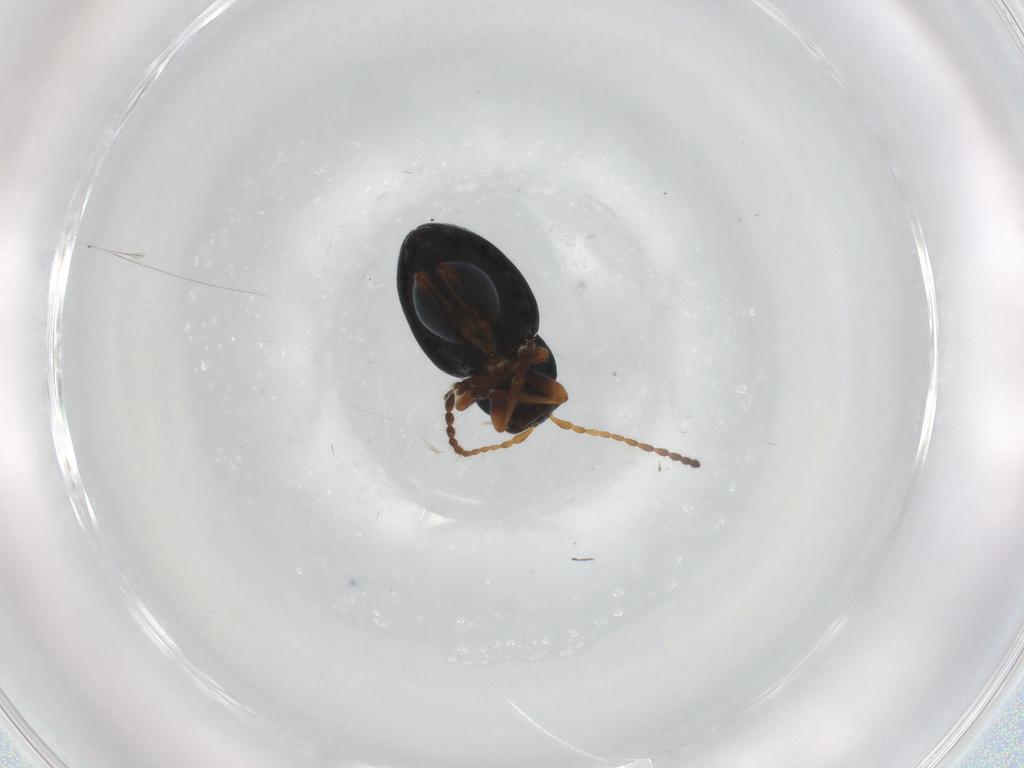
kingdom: Animalia
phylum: Arthropoda
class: Insecta
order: Coleoptera
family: Chrysomelidae
